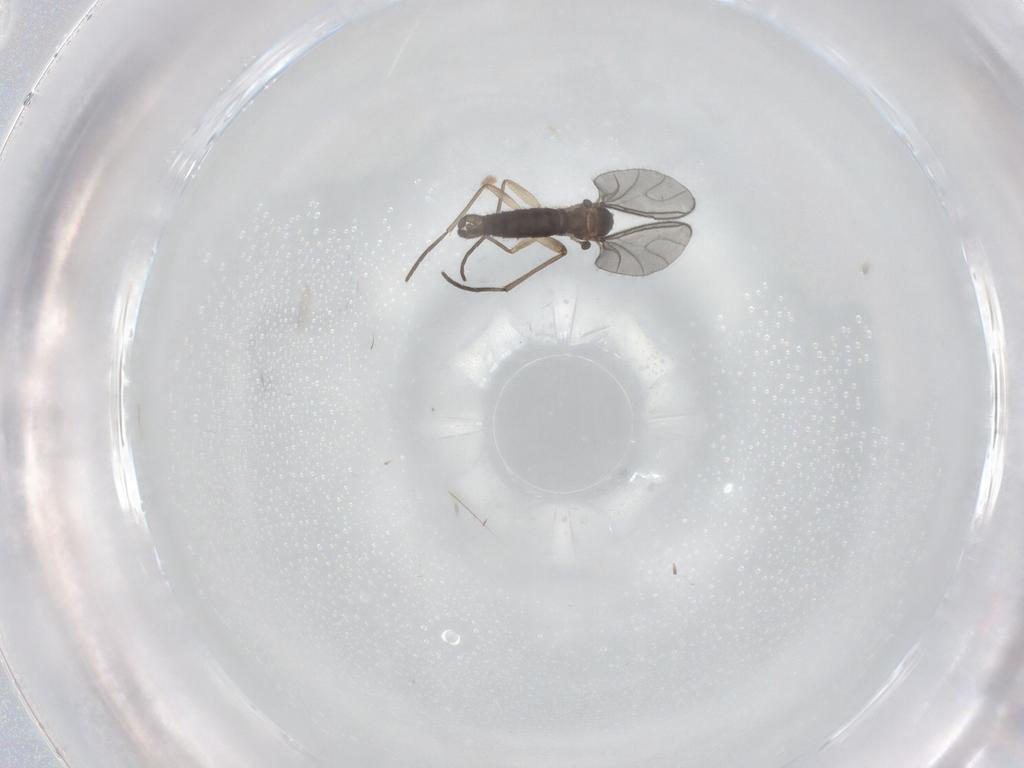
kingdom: Animalia
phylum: Arthropoda
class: Insecta
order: Diptera
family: Sciaridae
